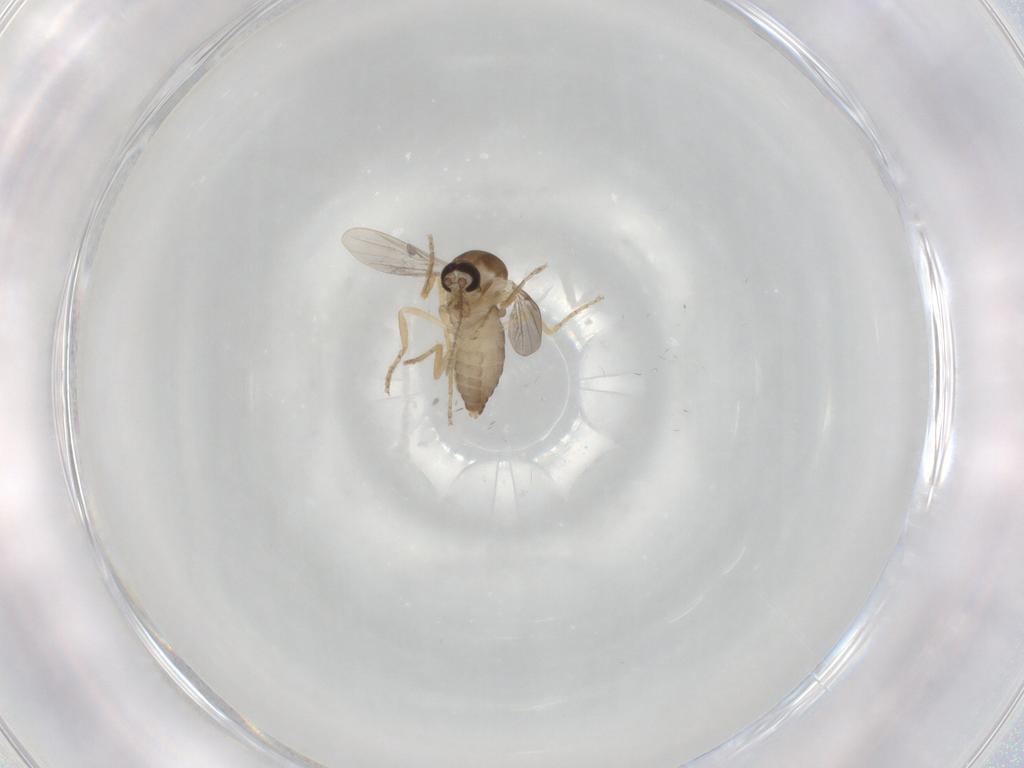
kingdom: Animalia
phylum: Arthropoda
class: Insecta
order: Diptera
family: Ceratopogonidae
